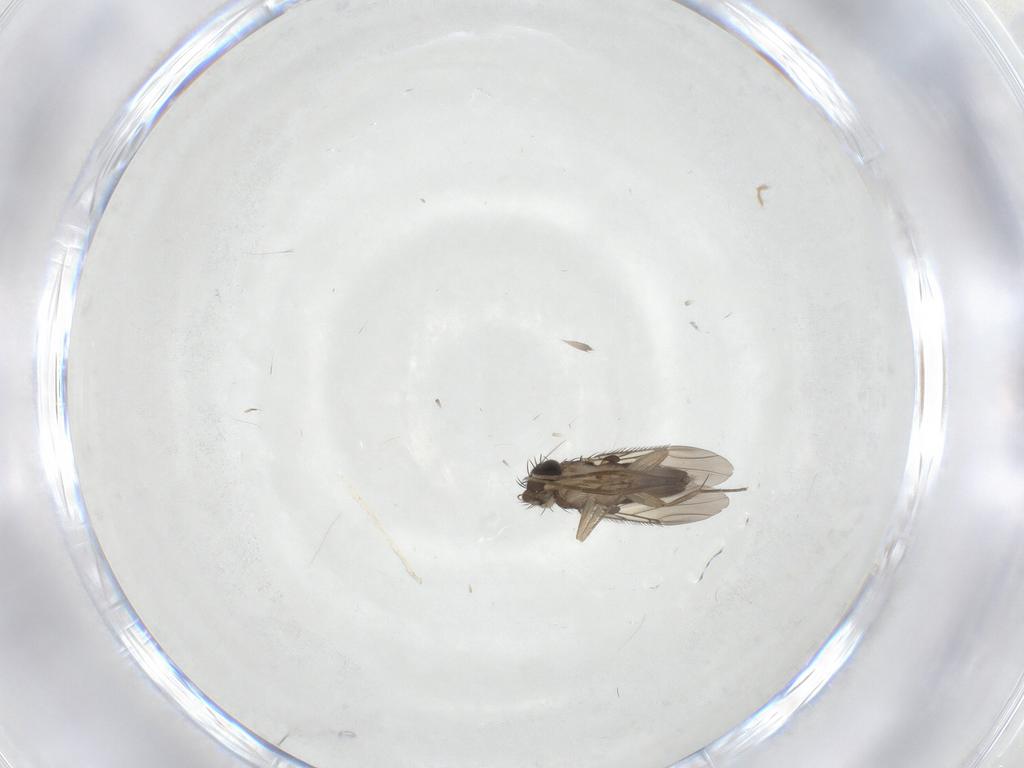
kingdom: Animalia
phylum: Arthropoda
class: Insecta
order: Diptera
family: Phoridae
